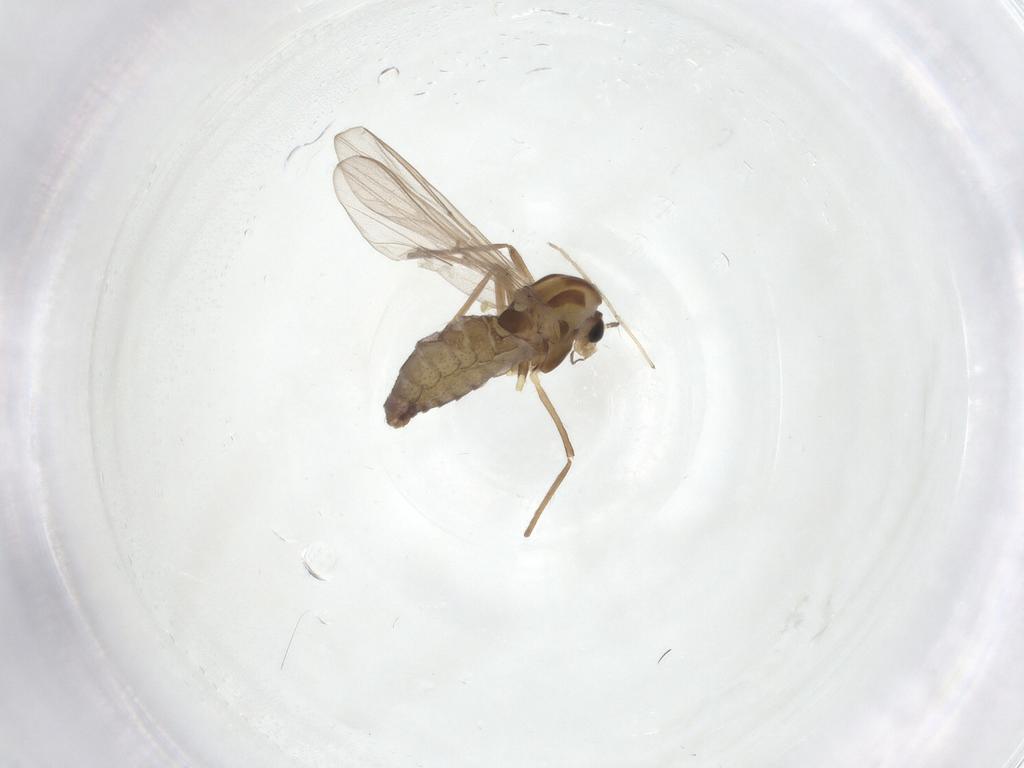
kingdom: Animalia
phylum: Arthropoda
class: Insecta
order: Diptera
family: Chironomidae
